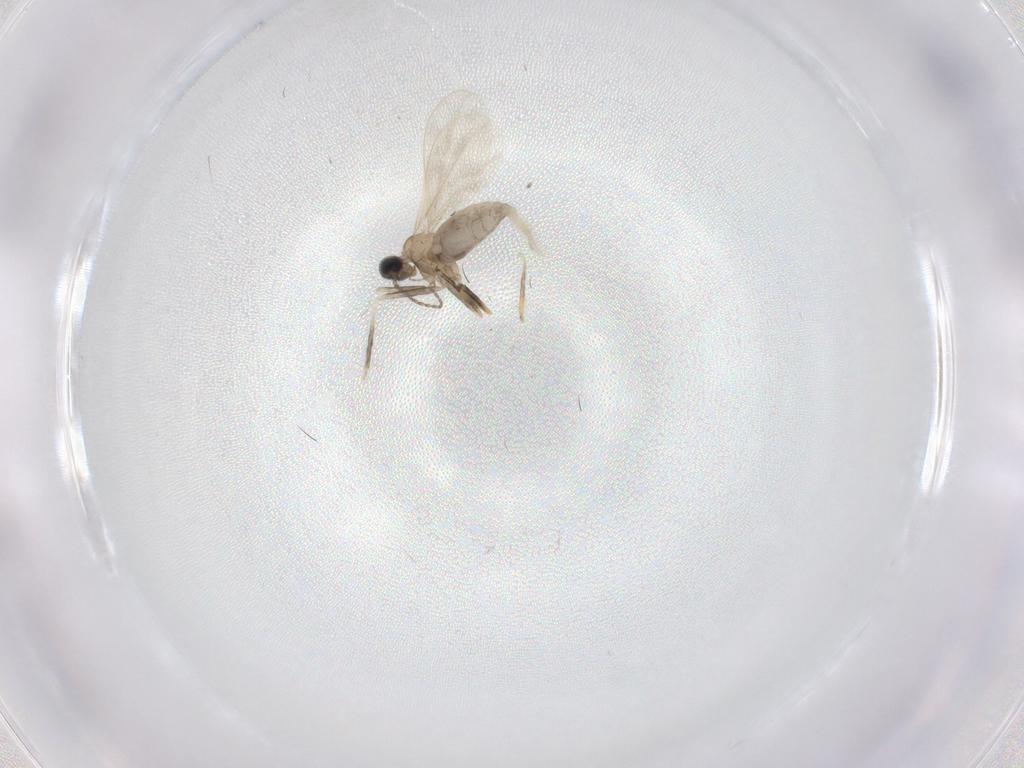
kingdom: Animalia
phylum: Arthropoda
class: Insecta
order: Diptera
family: Cecidomyiidae
